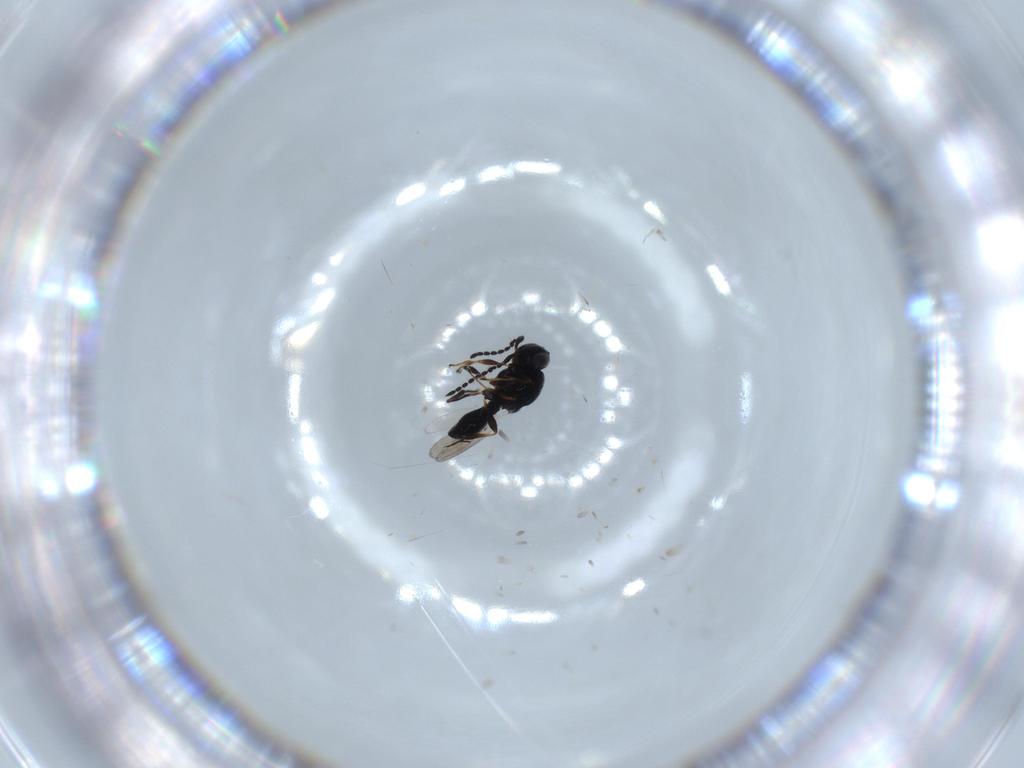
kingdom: Animalia
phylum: Arthropoda
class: Insecta
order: Hymenoptera
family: Platygastridae
